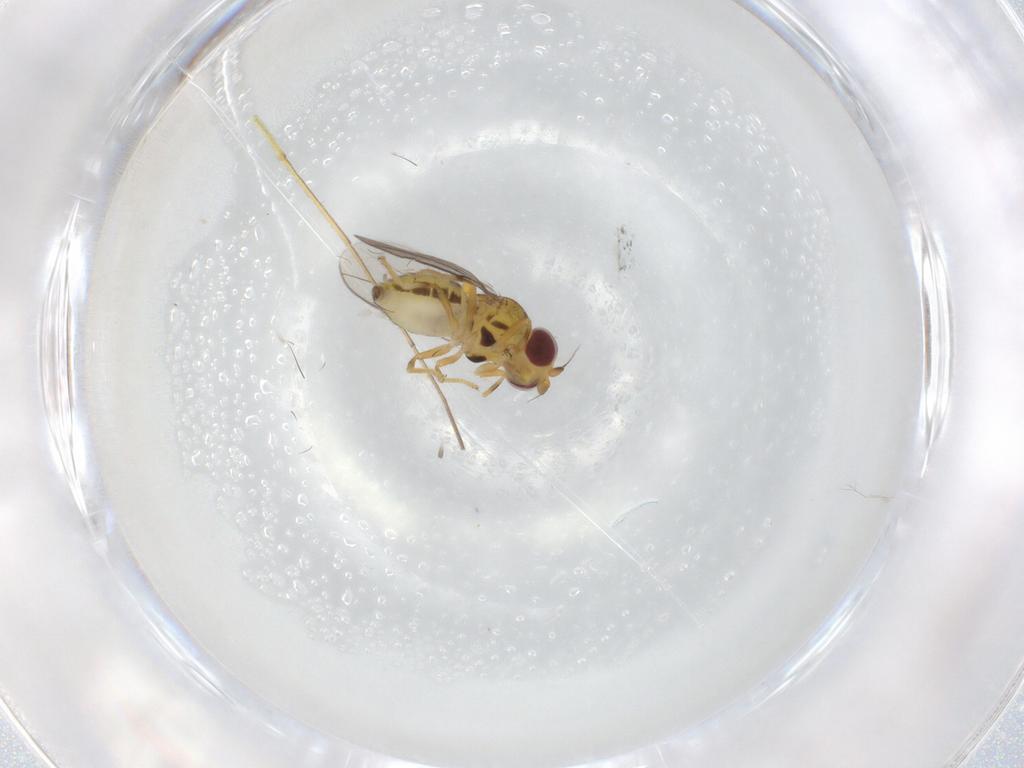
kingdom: Animalia
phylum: Arthropoda
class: Insecta
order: Diptera
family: Chloropidae
